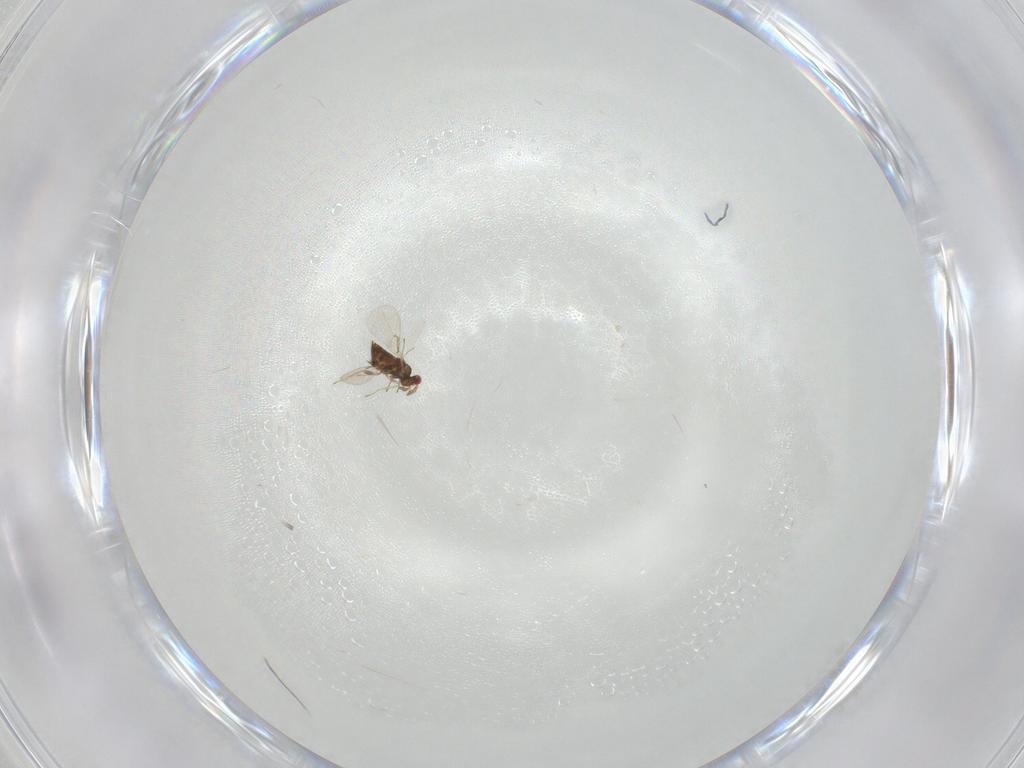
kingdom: Animalia
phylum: Arthropoda
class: Insecta
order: Hymenoptera
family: Trichogrammatidae
